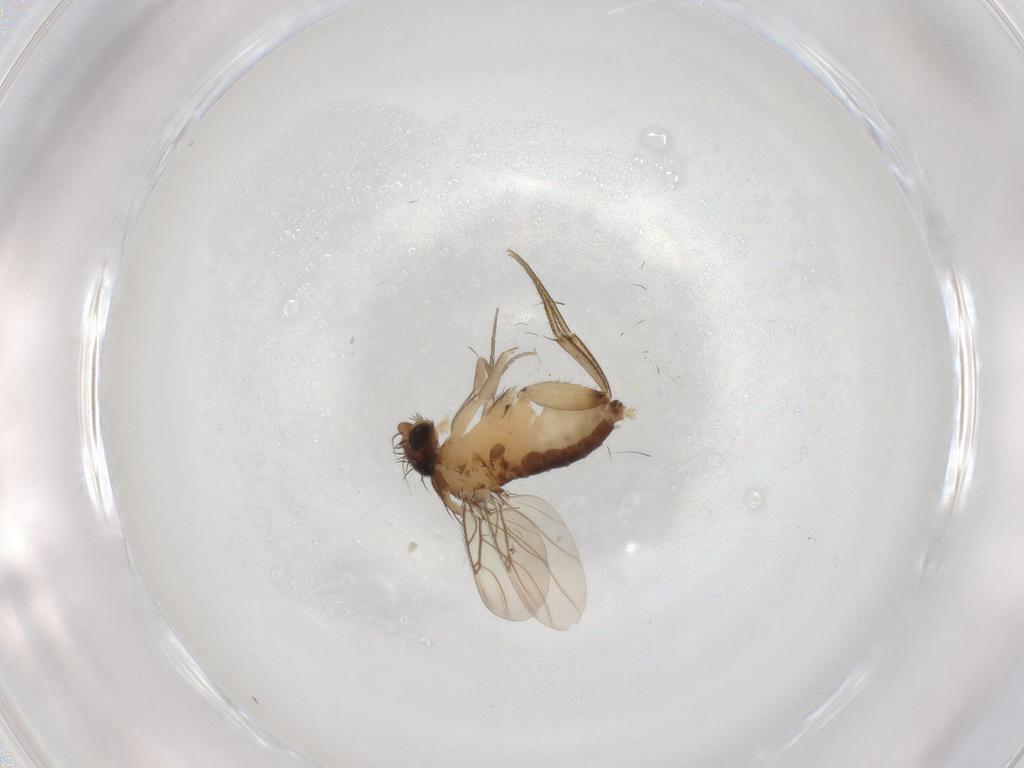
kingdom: Animalia
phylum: Arthropoda
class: Insecta
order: Diptera
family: Phoridae
